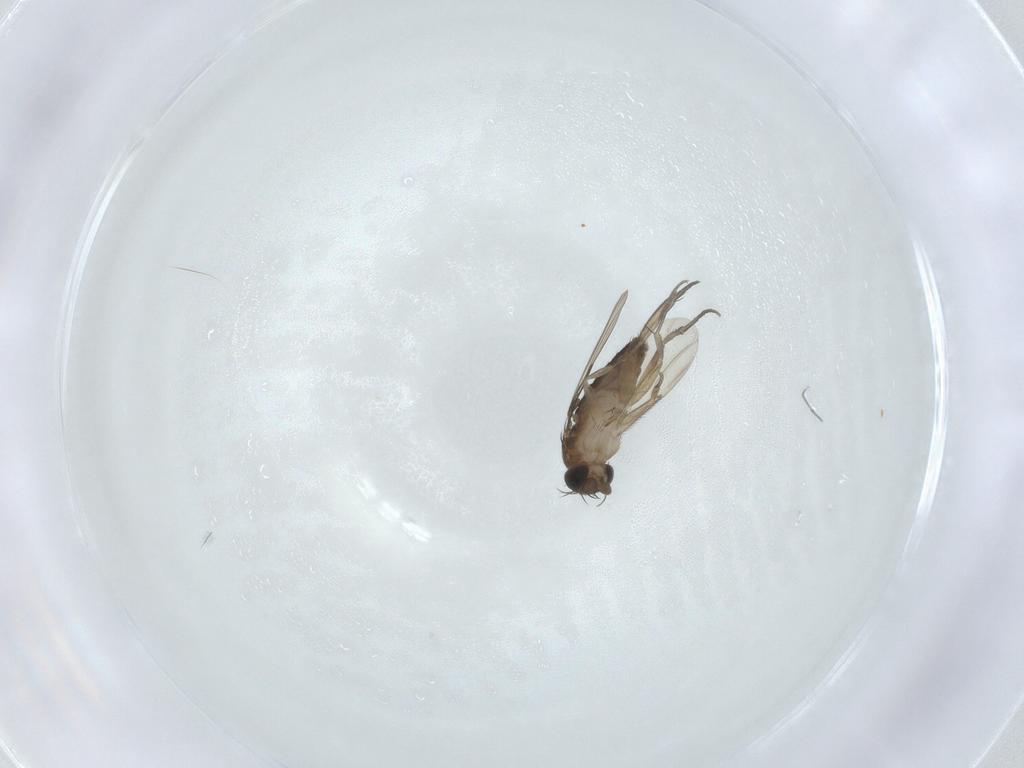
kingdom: Animalia
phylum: Arthropoda
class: Insecta
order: Diptera
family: Phoridae
